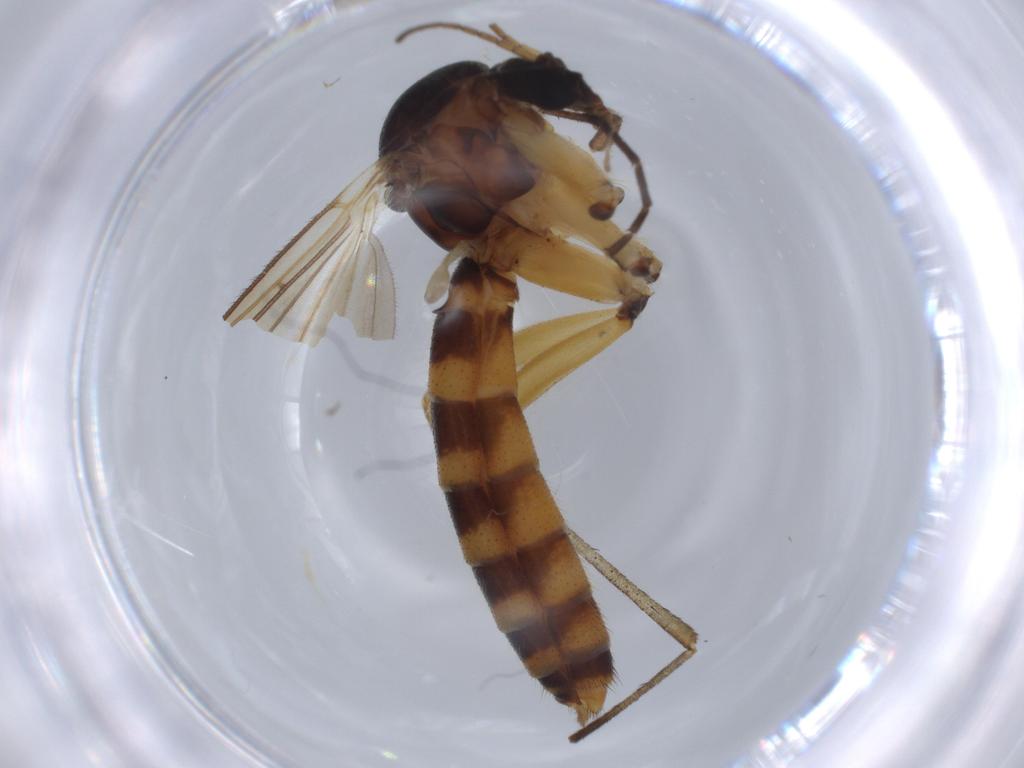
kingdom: Animalia
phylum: Arthropoda
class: Insecta
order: Diptera
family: Mycetophilidae
